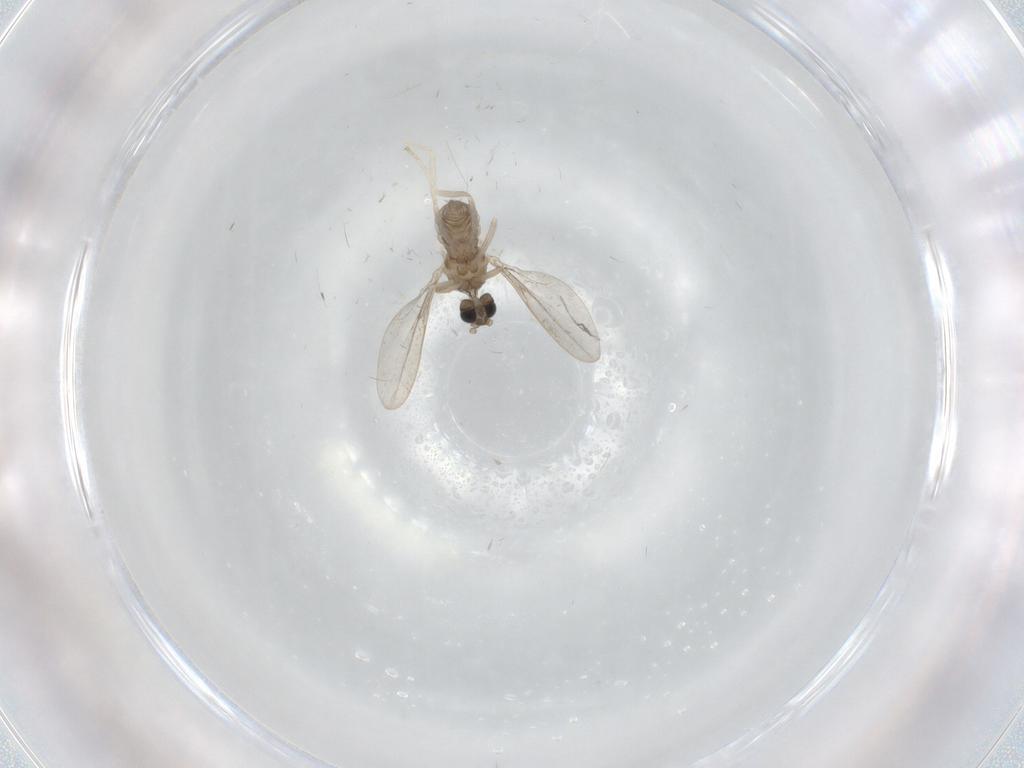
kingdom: Animalia
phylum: Arthropoda
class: Insecta
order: Diptera
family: Cecidomyiidae
